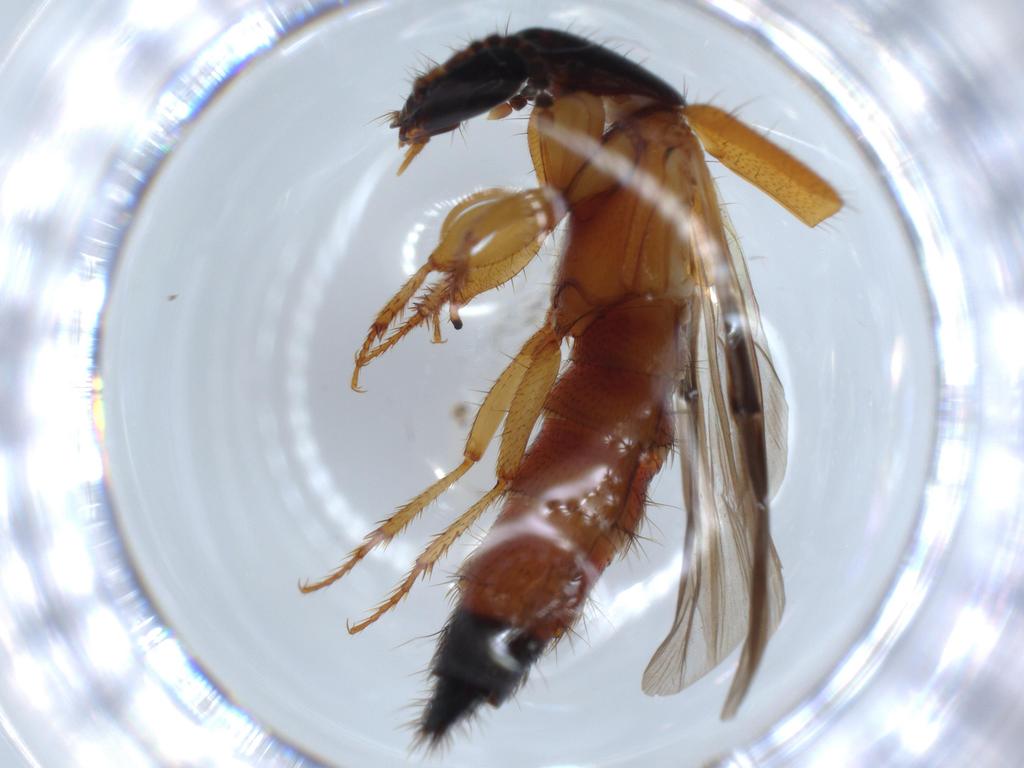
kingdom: Animalia
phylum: Arthropoda
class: Insecta
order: Coleoptera
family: Staphylinidae
